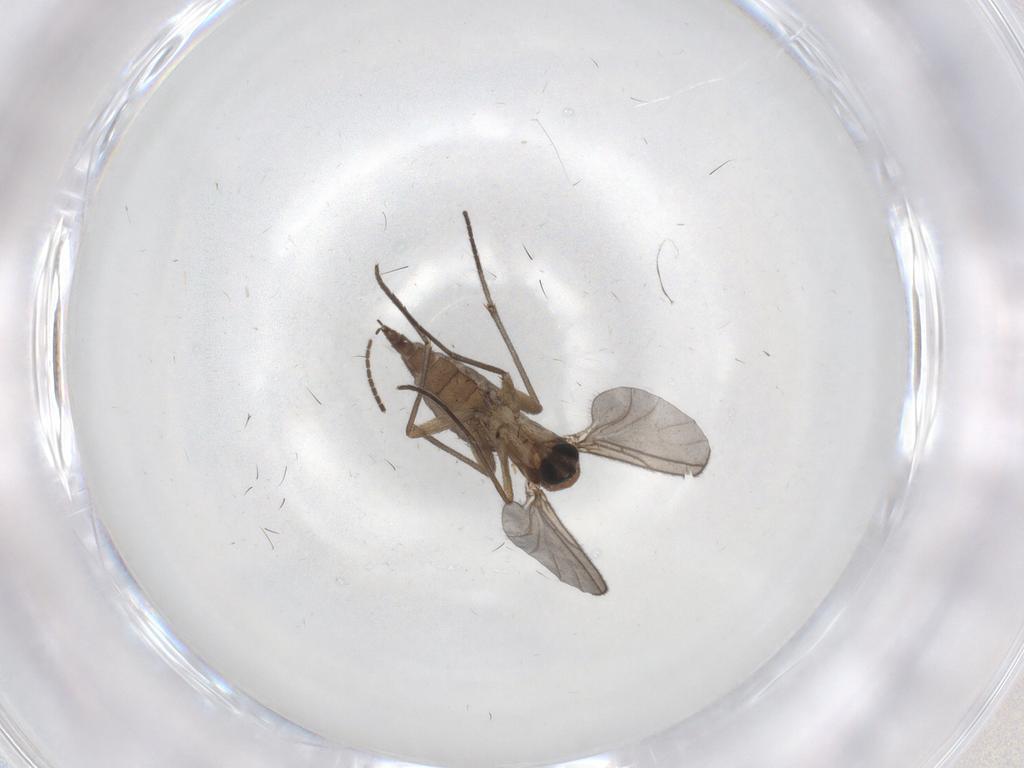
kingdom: Animalia
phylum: Arthropoda
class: Insecta
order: Diptera
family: Sciaridae
